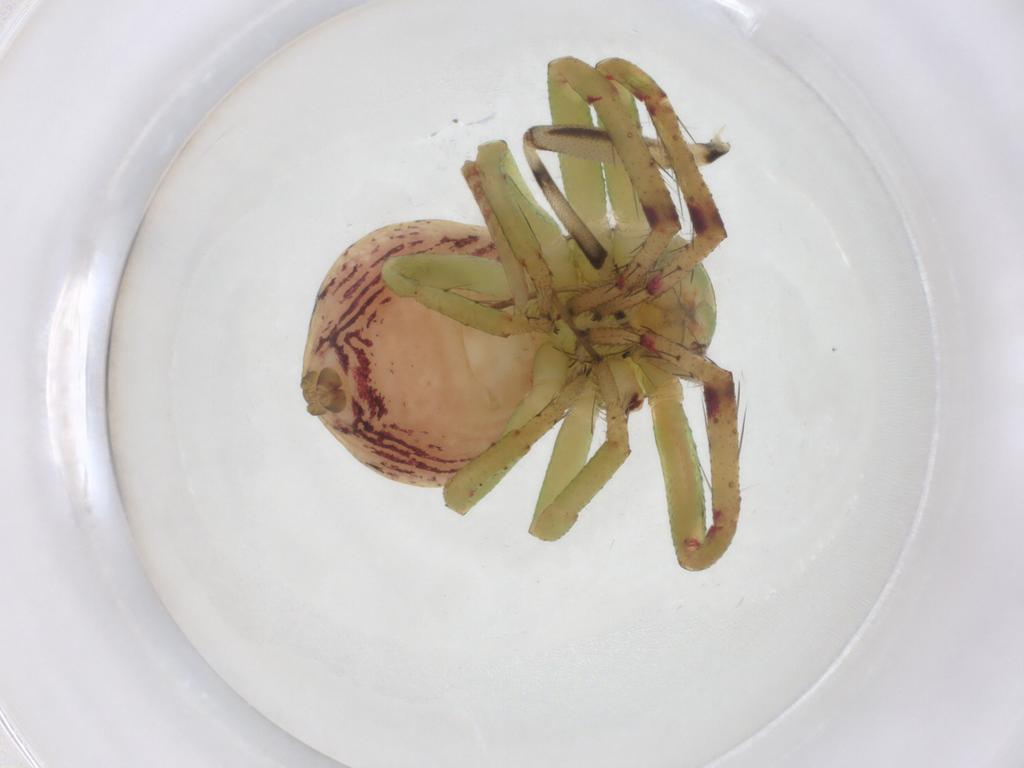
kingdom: Animalia
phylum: Arthropoda
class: Arachnida
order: Araneae
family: Thomisidae
